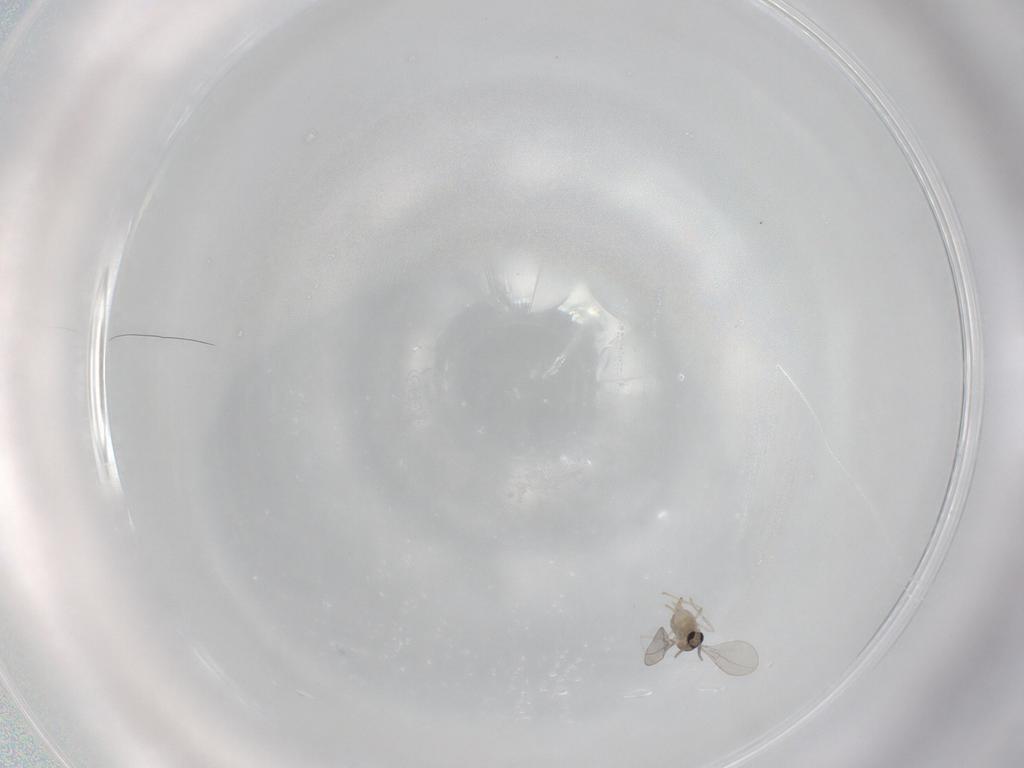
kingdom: Animalia
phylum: Arthropoda
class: Insecta
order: Diptera
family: Cecidomyiidae
